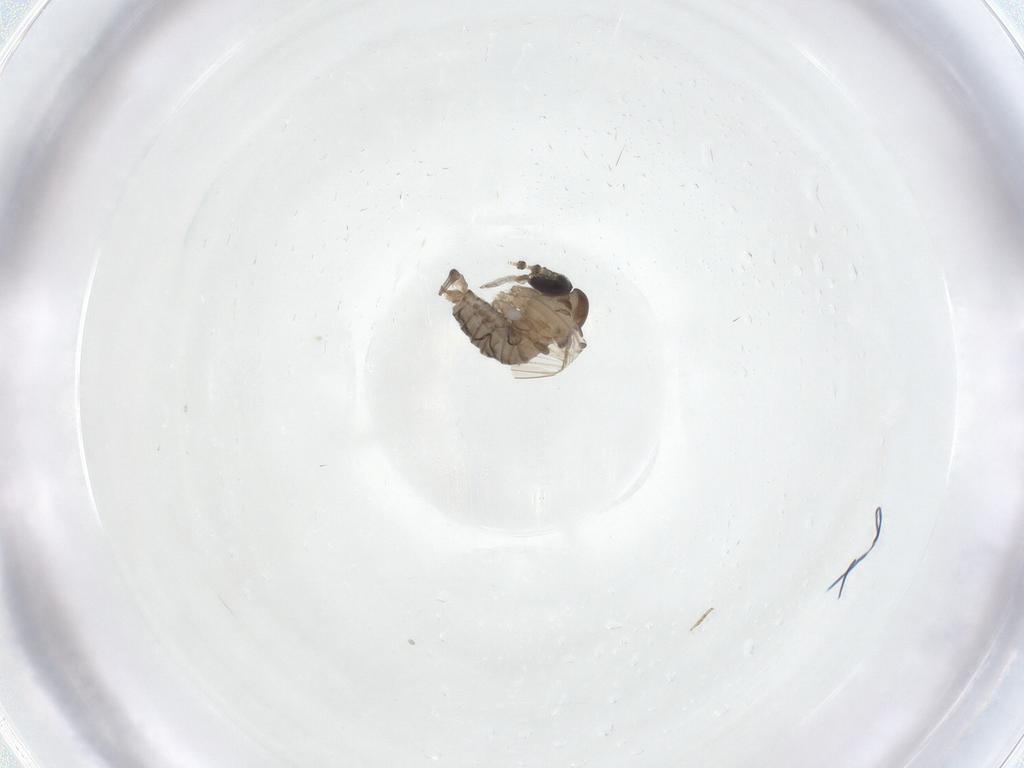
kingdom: Animalia
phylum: Arthropoda
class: Insecta
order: Diptera
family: Psychodidae
